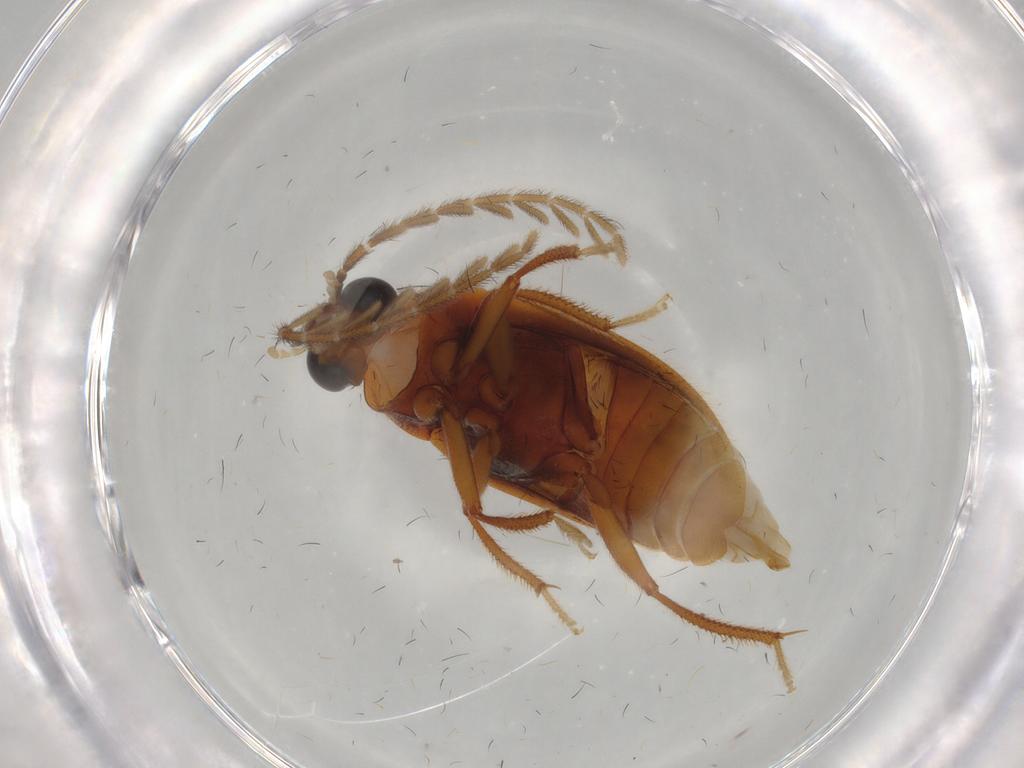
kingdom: Animalia
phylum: Arthropoda
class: Insecta
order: Coleoptera
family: Ptilodactylidae
